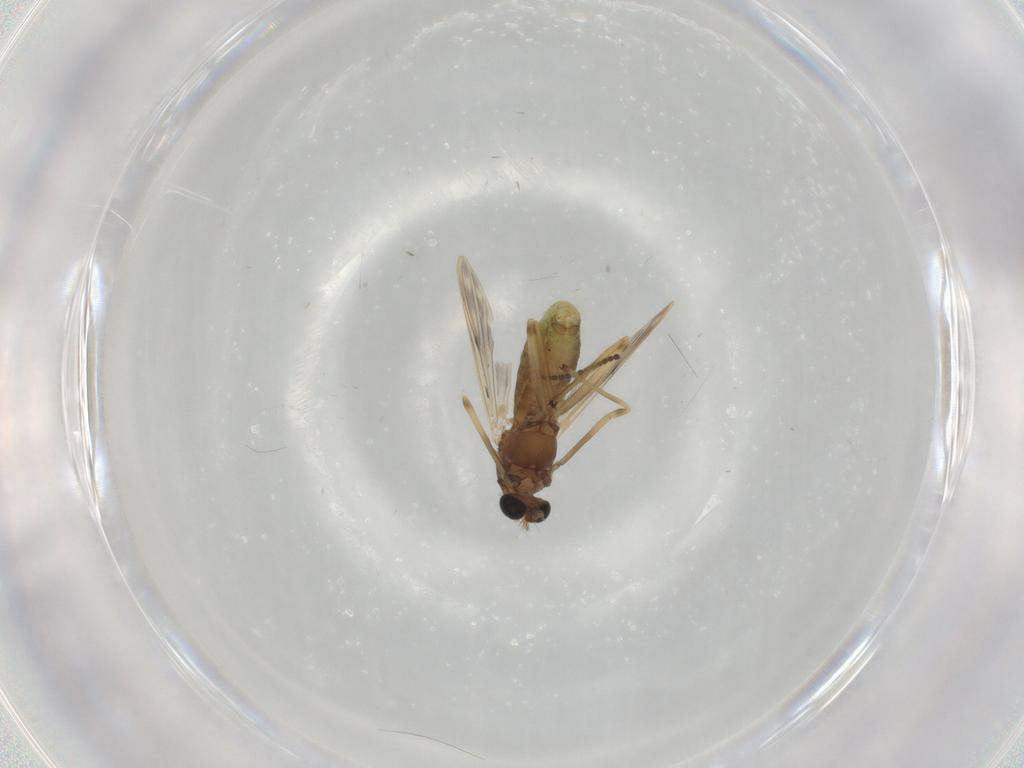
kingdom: Animalia
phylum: Arthropoda
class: Insecta
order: Diptera
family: Chironomidae
